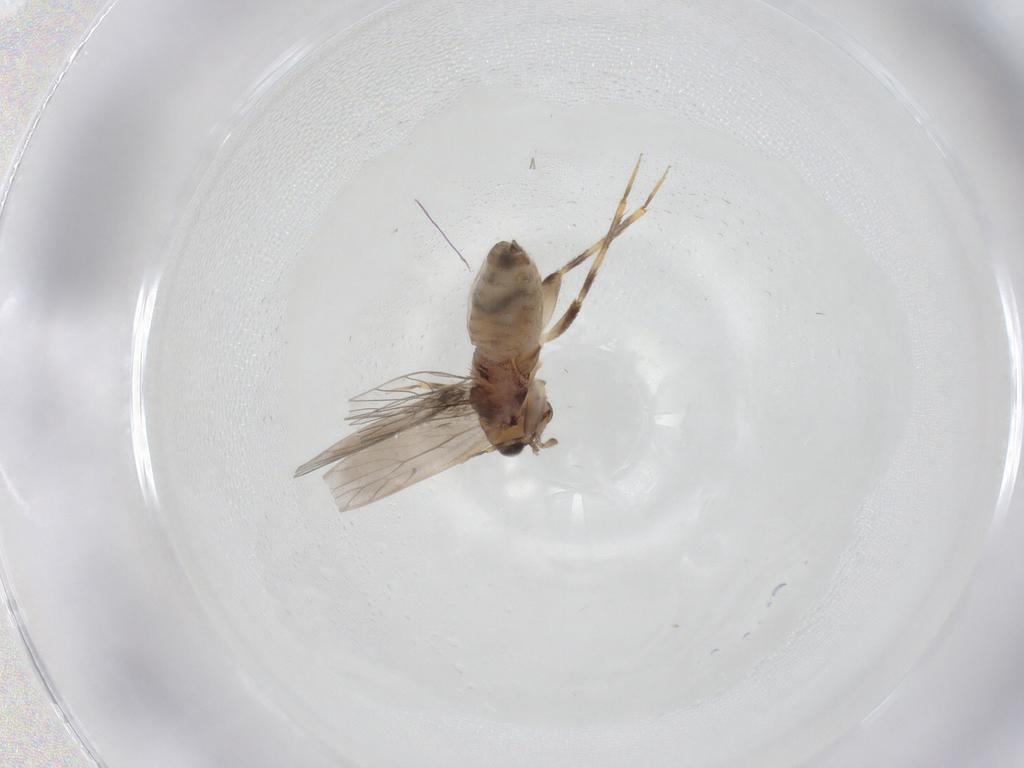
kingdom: Animalia
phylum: Arthropoda
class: Insecta
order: Psocodea
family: Lepidopsocidae
